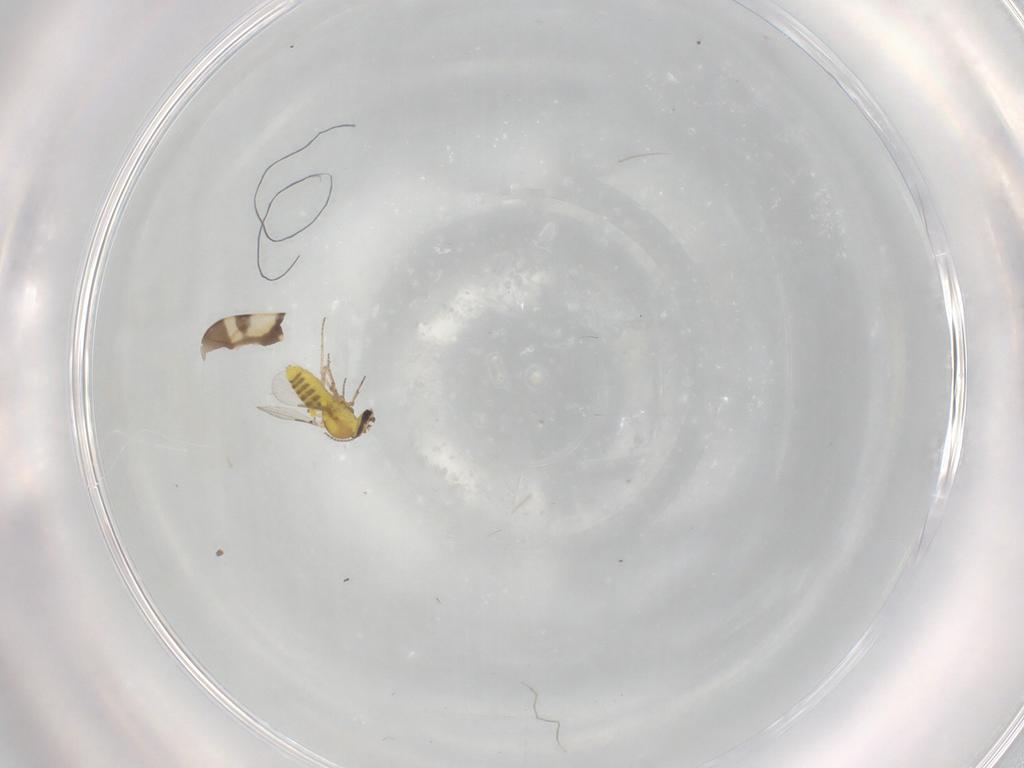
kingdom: Animalia
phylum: Arthropoda
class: Insecta
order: Diptera
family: Ceratopogonidae
